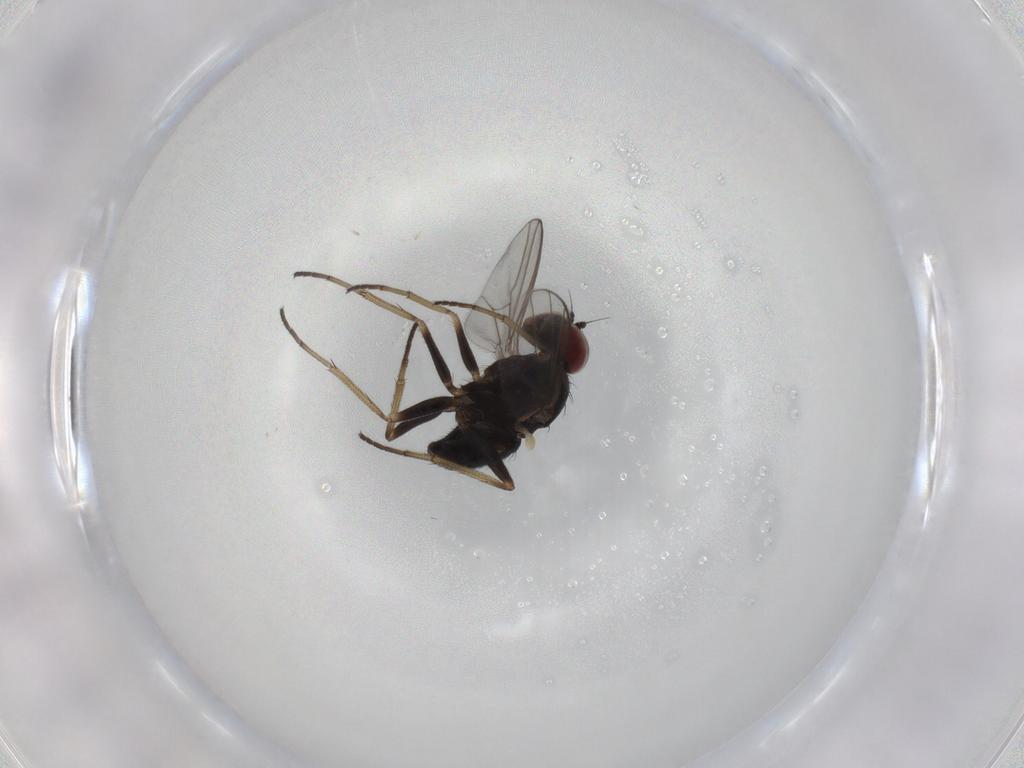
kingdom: Animalia
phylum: Arthropoda
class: Insecta
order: Diptera
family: Dolichopodidae
